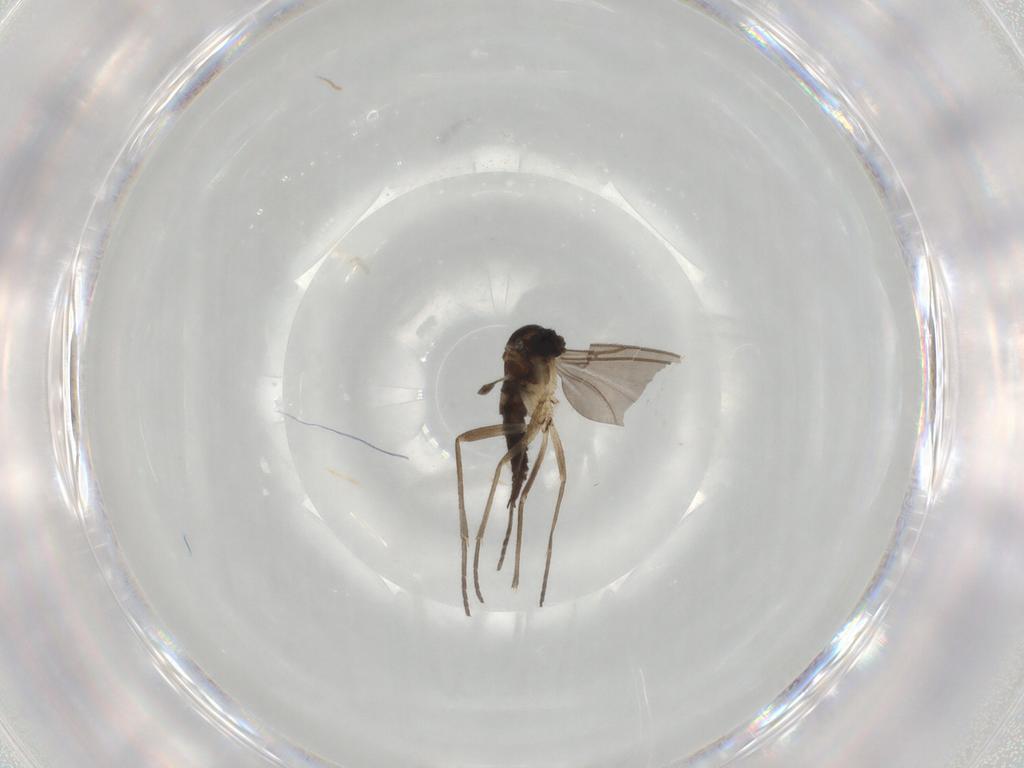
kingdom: Animalia
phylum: Arthropoda
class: Insecta
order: Diptera
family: Sciaridae
